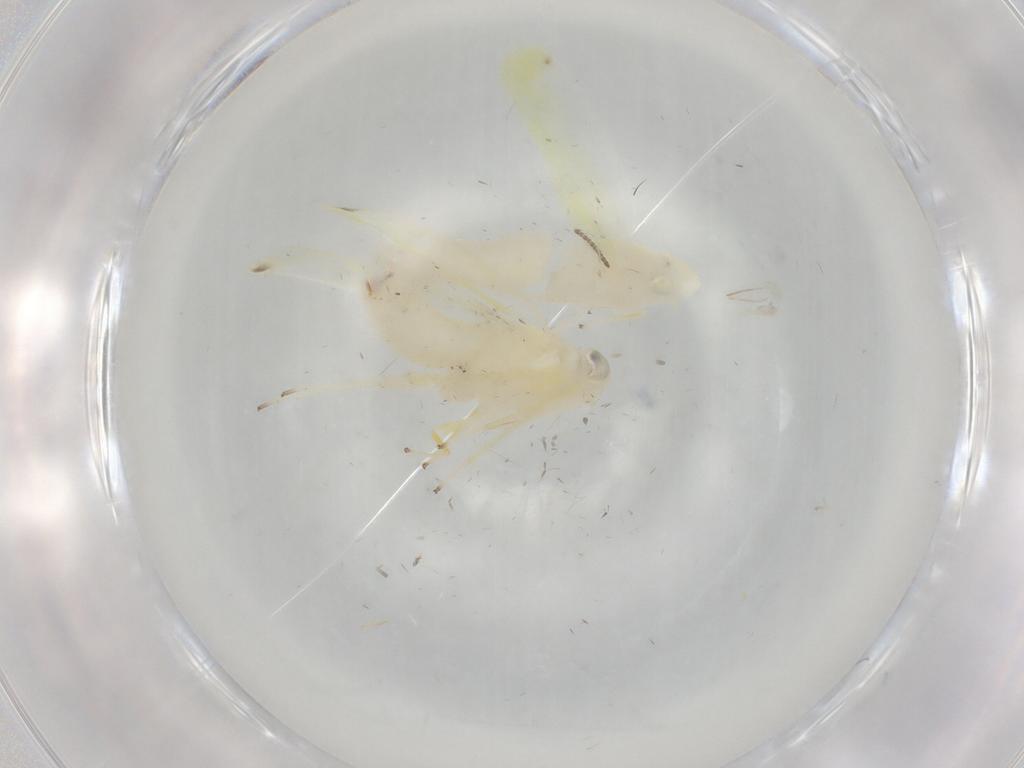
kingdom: Animalia
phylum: Arthropoda
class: Insecta
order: Hemiptera
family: Cicadellidae
